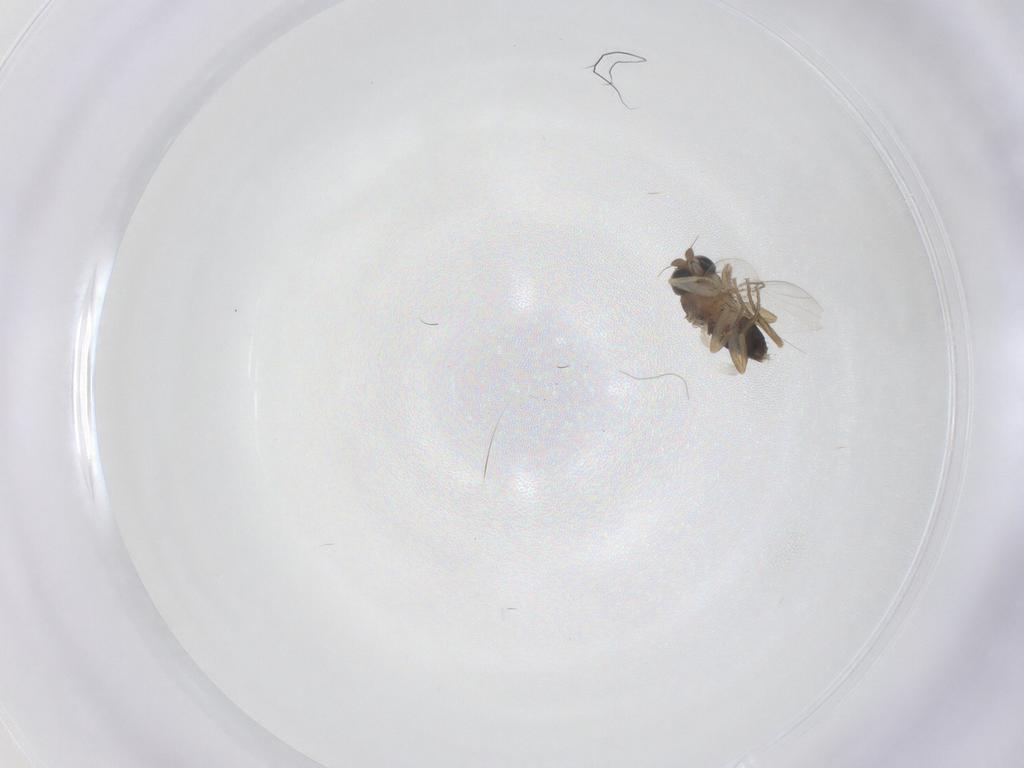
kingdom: Animalia
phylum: Arthropoda
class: Insecta
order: Diptera
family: Phoridae
